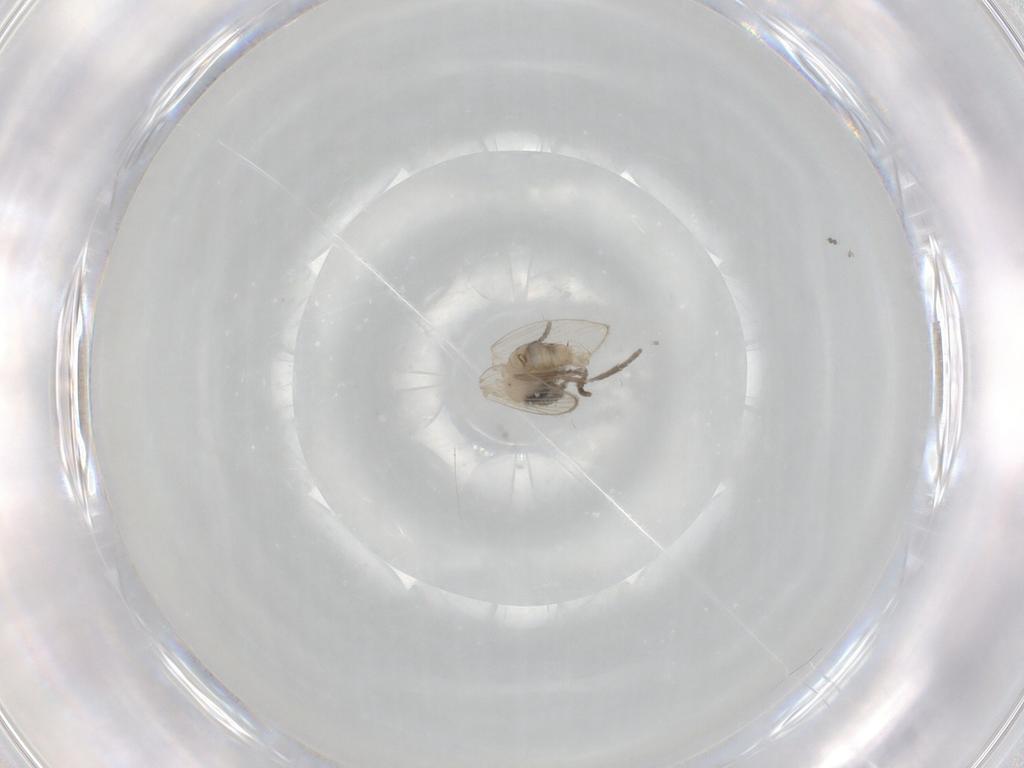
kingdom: Animalia
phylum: Arthropoda
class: Insecta
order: Diptera
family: Psychodidae
